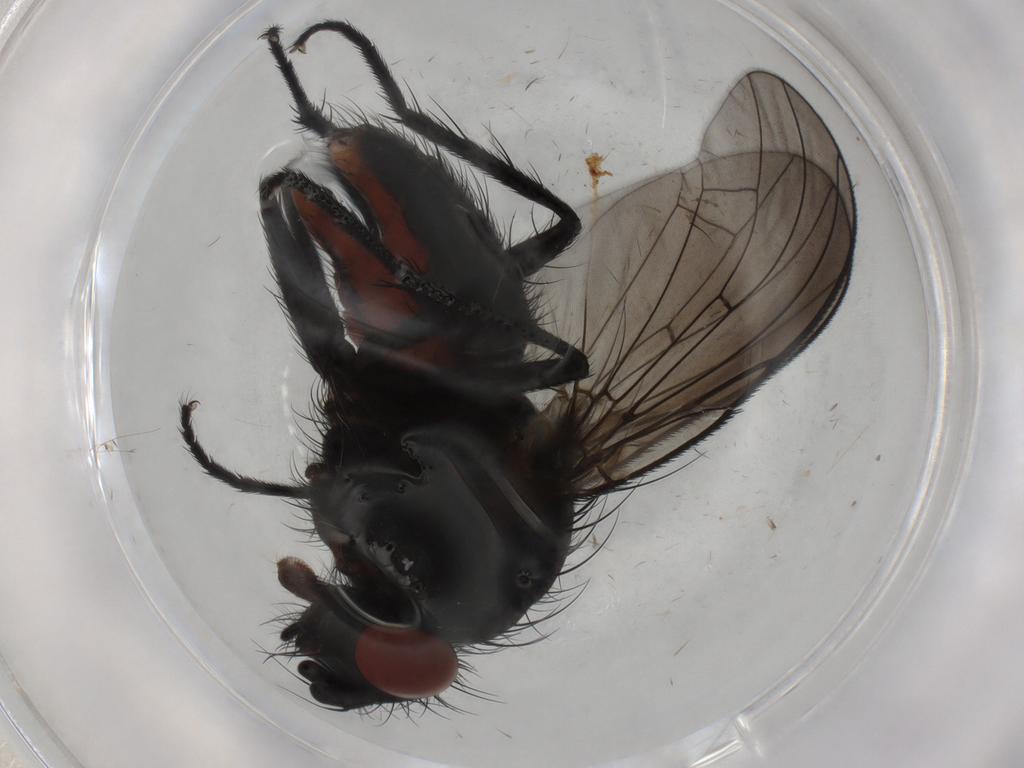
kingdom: Animalia
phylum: Arthropoda
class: Insecta
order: Diptera
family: Anthomyiidae
